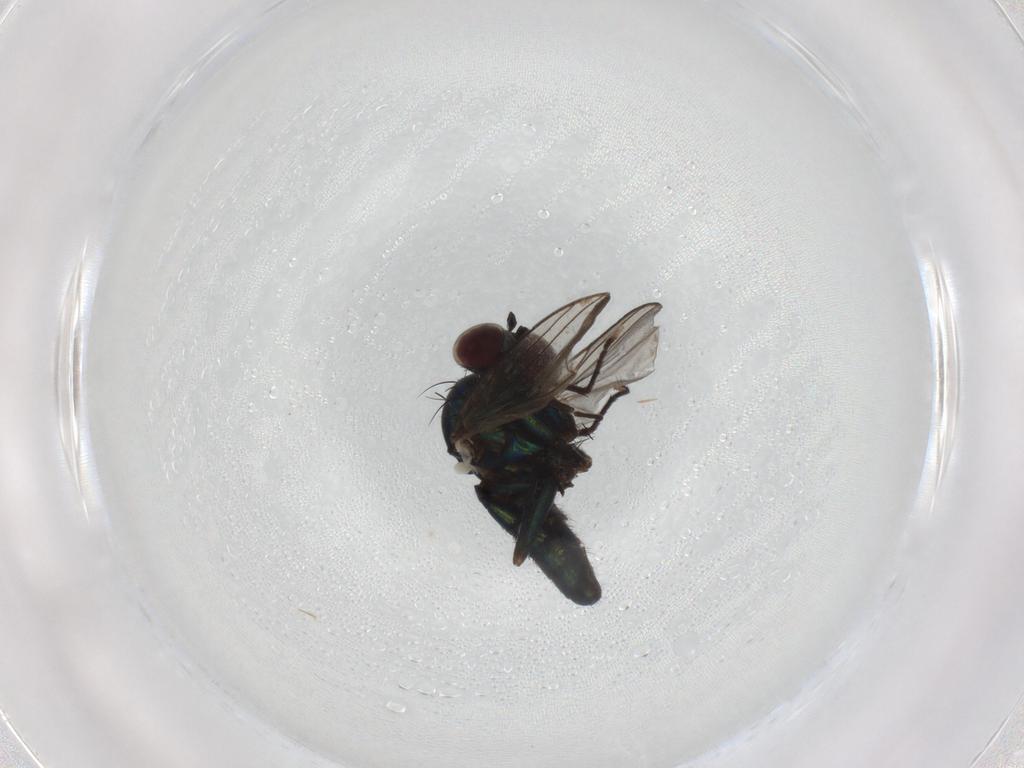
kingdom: Animalia
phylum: Arthropoda
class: Insecta
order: Diptera
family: Dolichopodidae
